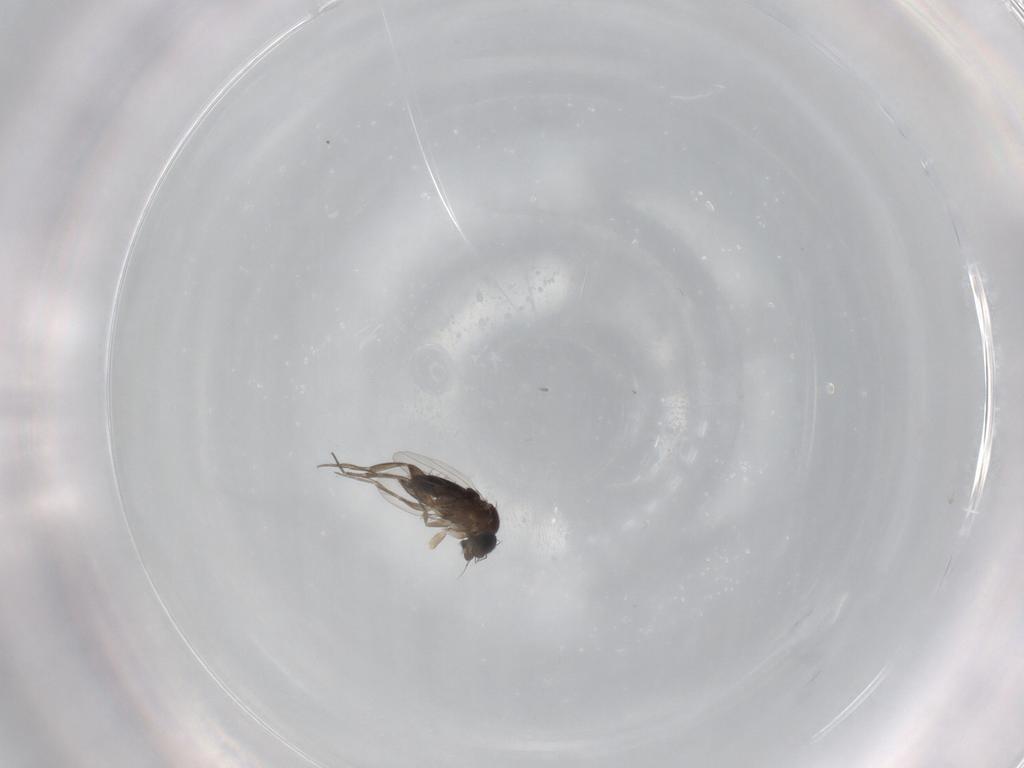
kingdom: Animalia
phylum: Arthropoda
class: Insecta
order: Diptera
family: Phoridae
